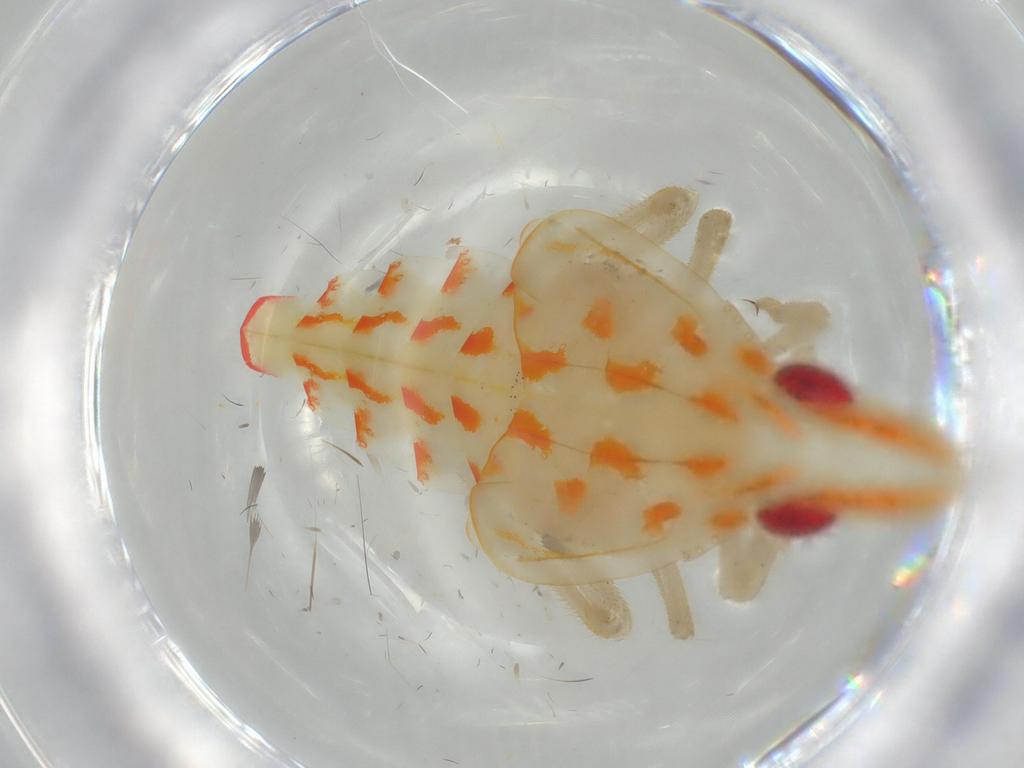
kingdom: Animalia
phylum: Arthropoda
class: Insecta
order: Hemiptera
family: Tropiduchidae
